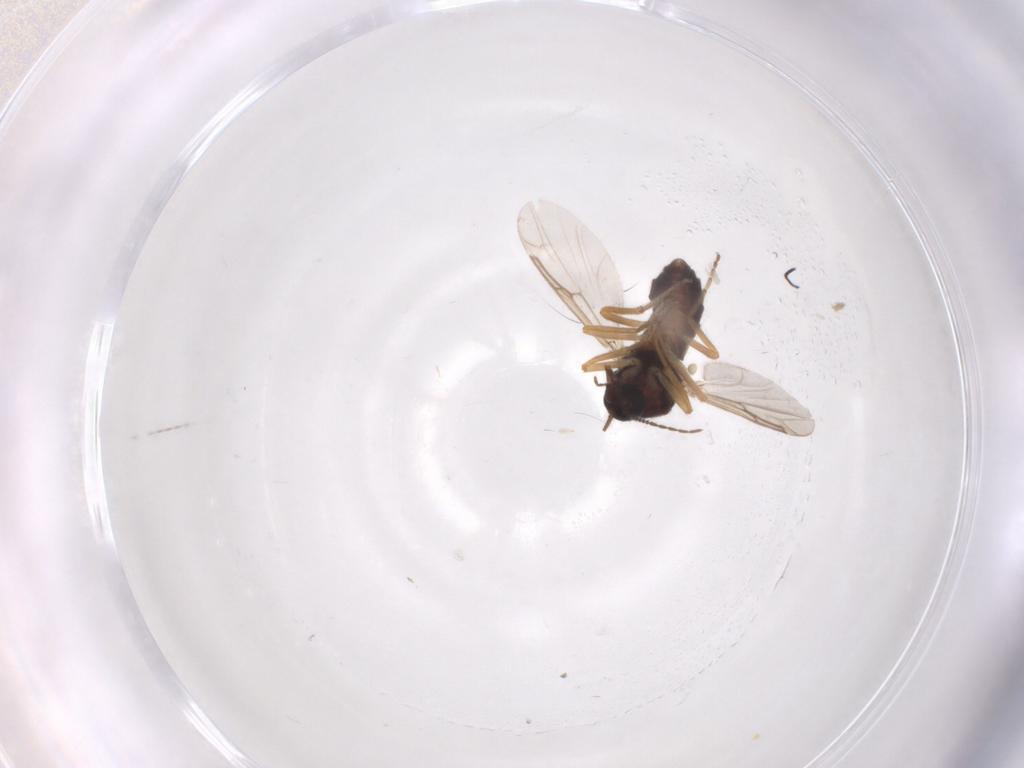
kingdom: Animalia
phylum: Arthropoda
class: Insecta
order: Diptera
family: Ceratopogonidae
